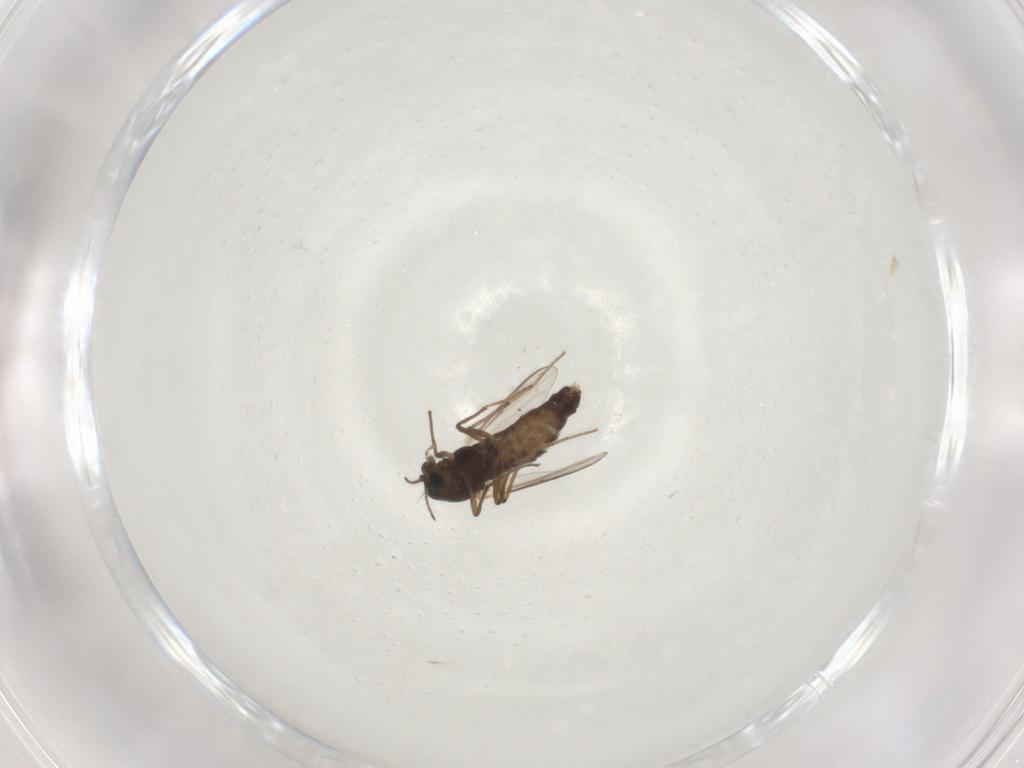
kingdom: Animalia
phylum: Arthropoda
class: Insecta
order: Diptera
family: Chironomidae
